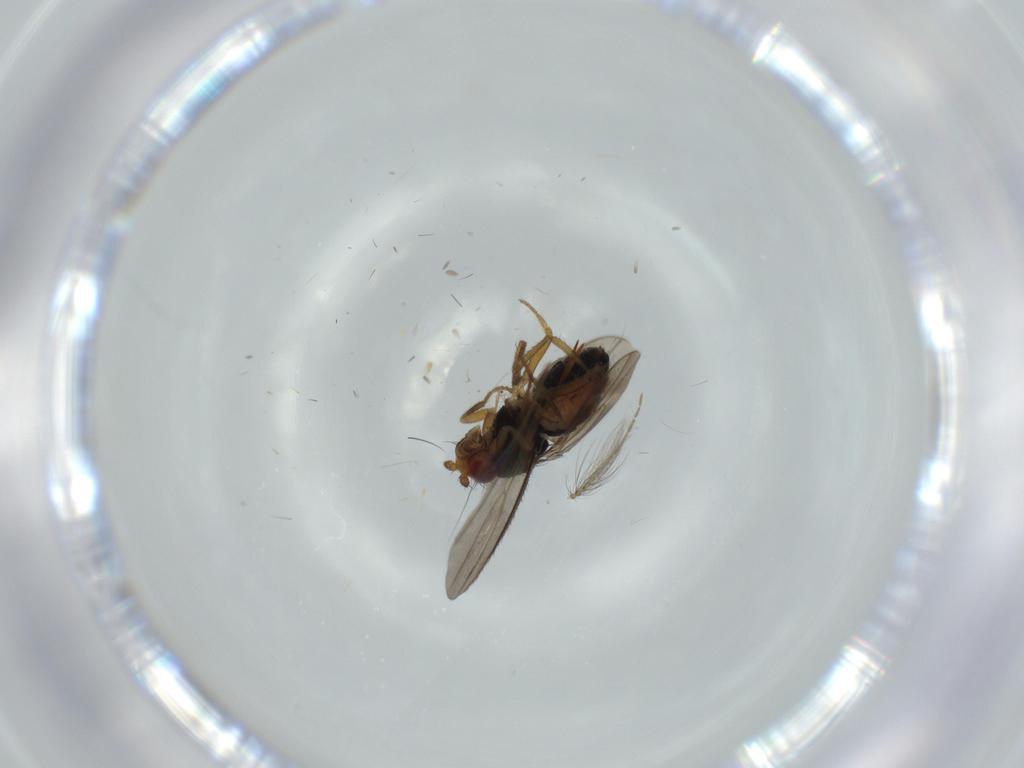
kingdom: Animalia
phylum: Arthropoda
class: Insecta
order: Diptera
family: Sphaeroceridae
